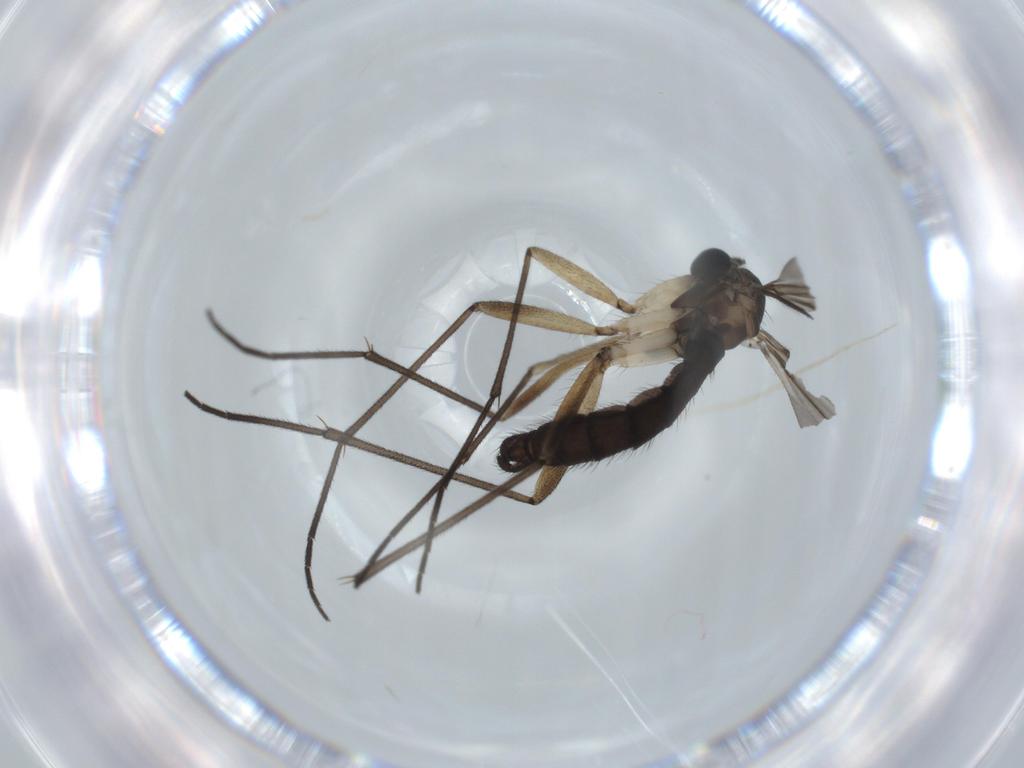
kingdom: Animalia
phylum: Arthropoda
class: Insecta
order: Diptera
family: Sciaridae
